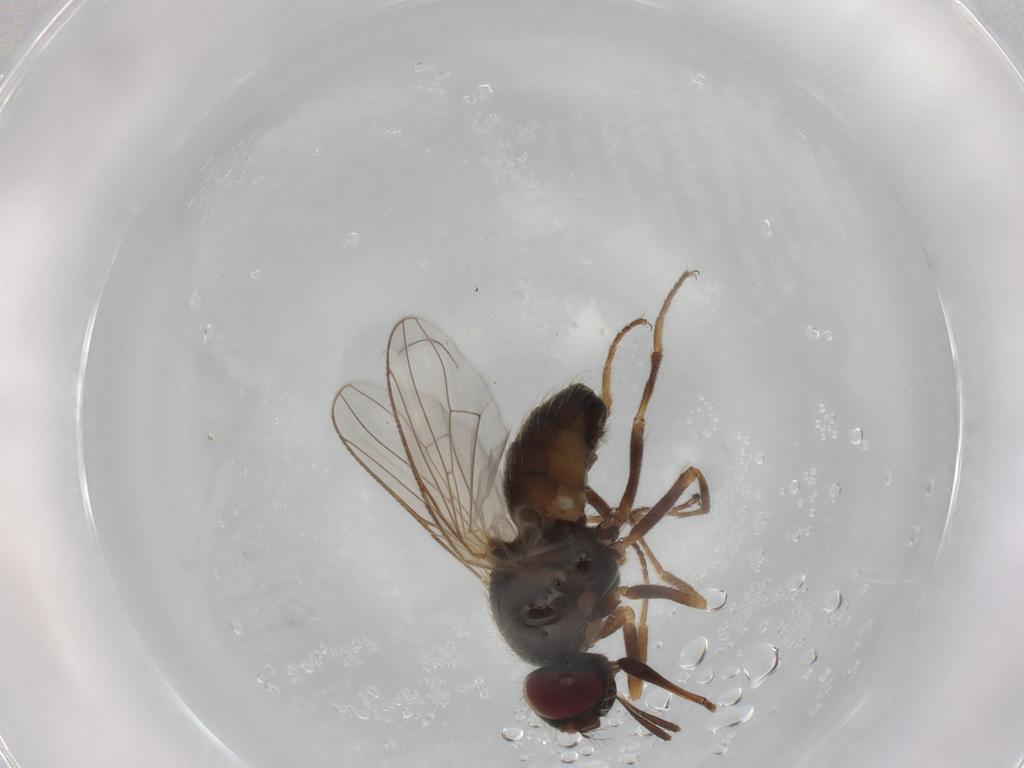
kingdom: Animalia
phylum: Arthropoda
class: Insecta
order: Diptera
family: Muscidae
